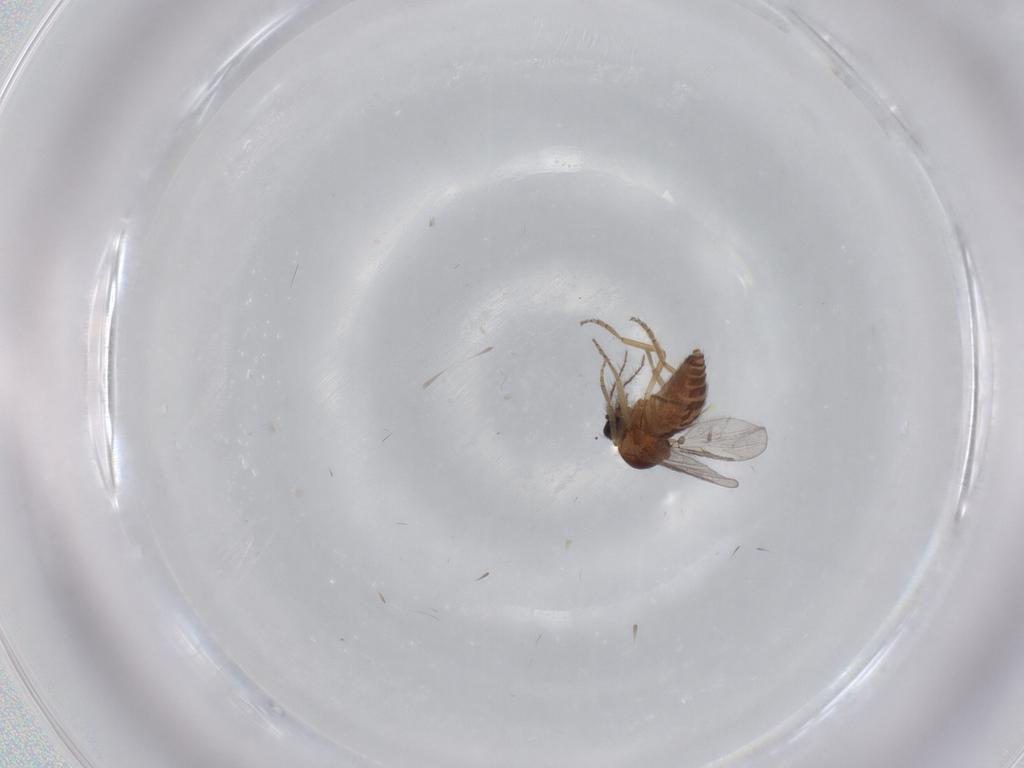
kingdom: Animalia
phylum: Arthropoda
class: Insecta
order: Diptera
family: Ceratopogonidae
